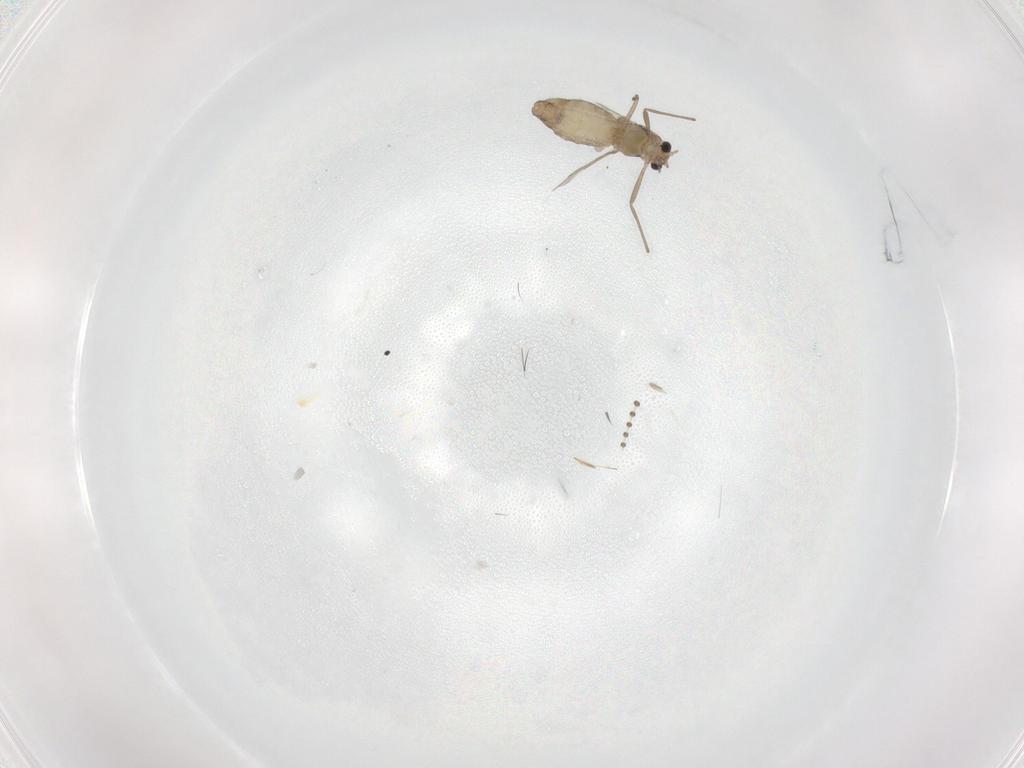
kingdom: Animalia
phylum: Arthropoda
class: Insecta
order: Diptera
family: Chironomidae
